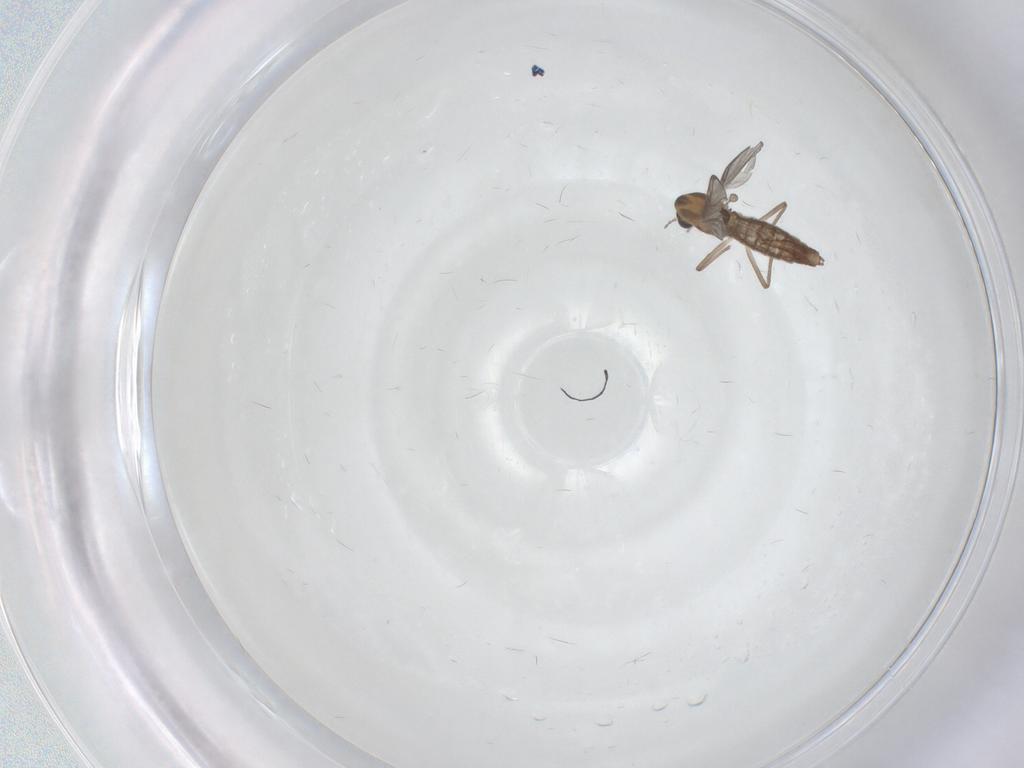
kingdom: Animalia
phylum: Arthropoda
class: Insecta
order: Diptera
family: Chironomidae
